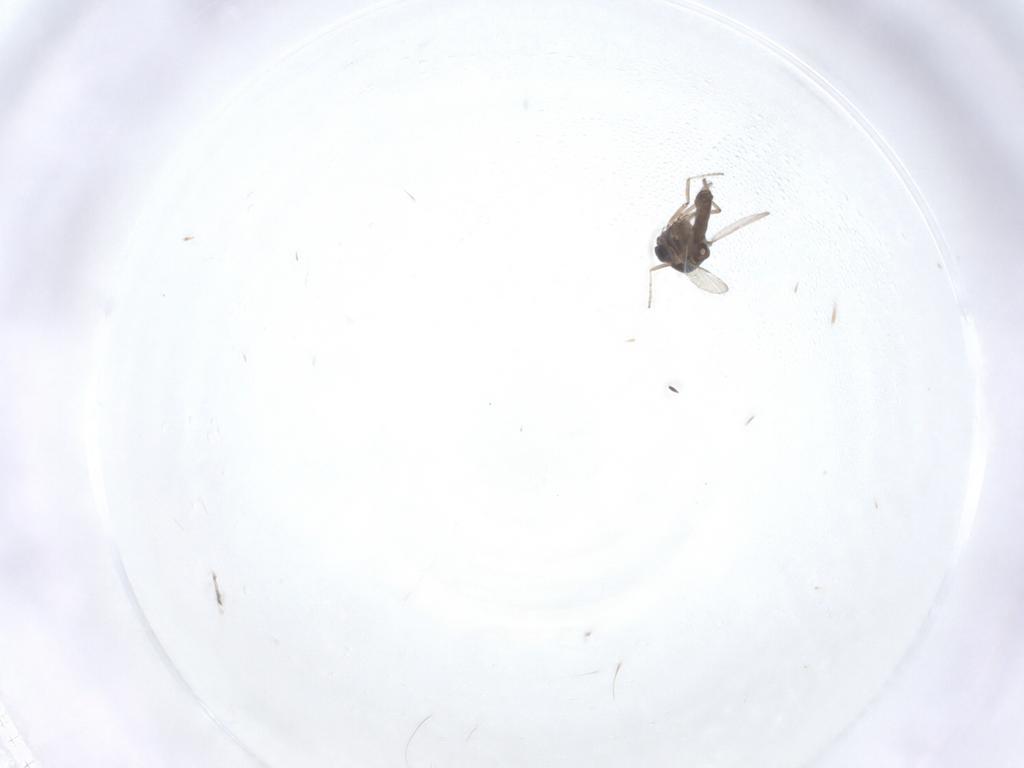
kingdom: Animalia
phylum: Arthropoda
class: Insecta
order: Diptera
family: Ceratopogonidae
